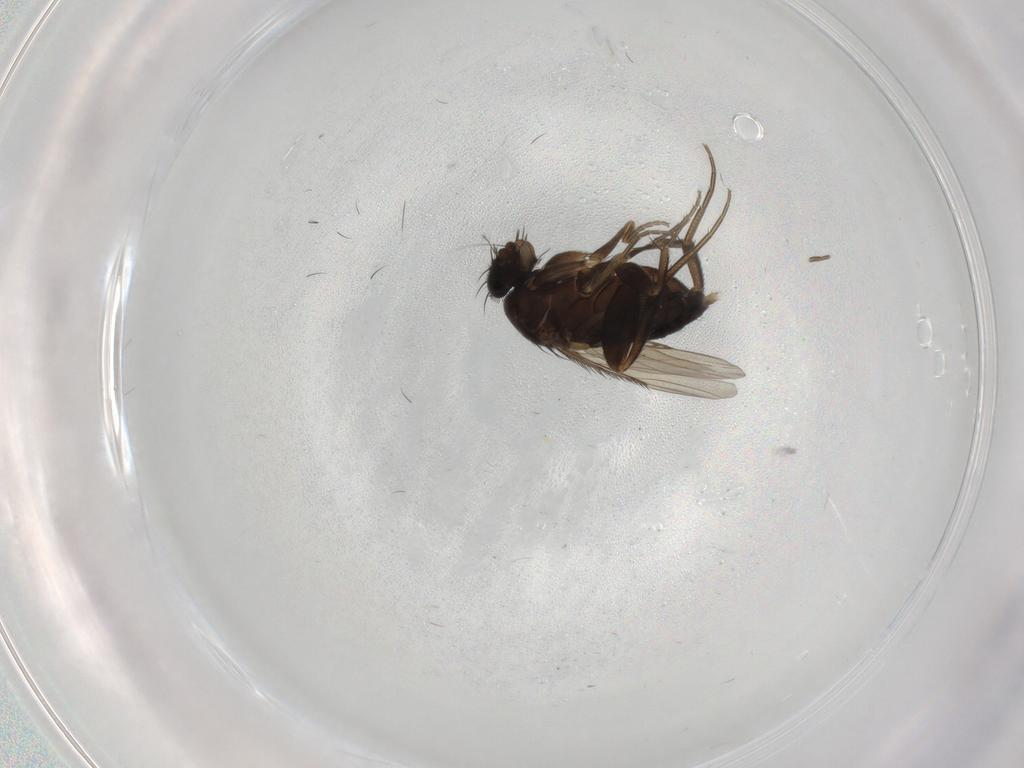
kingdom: Animalia
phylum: Arthropoda
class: Insecta
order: Diptera
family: Phoridae
